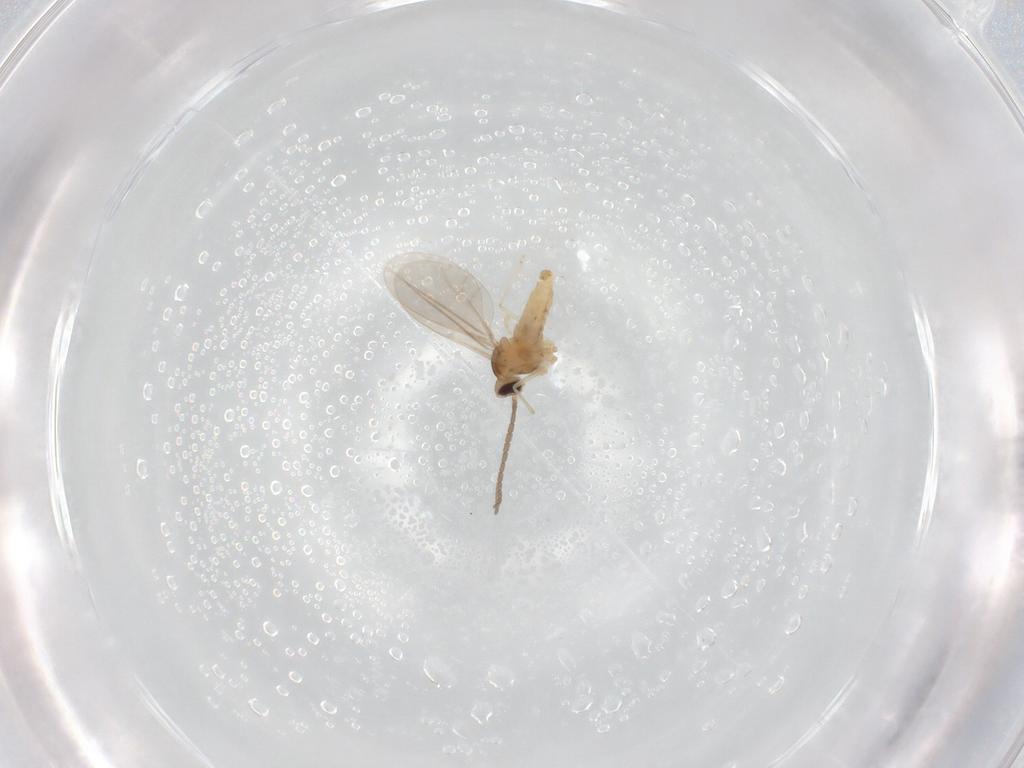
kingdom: Animalia
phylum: Arthropoda
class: Insecta
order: Diptera
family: Cecidomyiidae
